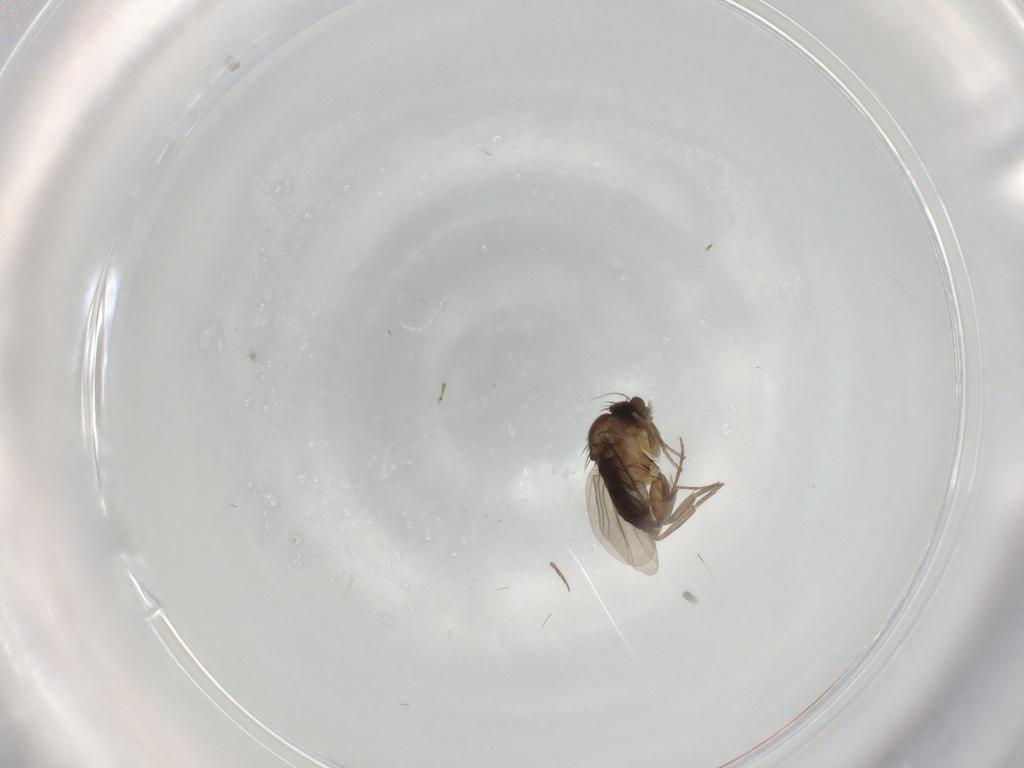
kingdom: Animalia
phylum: Arthropoda
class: Insecta
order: Diptera
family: Phoridae
